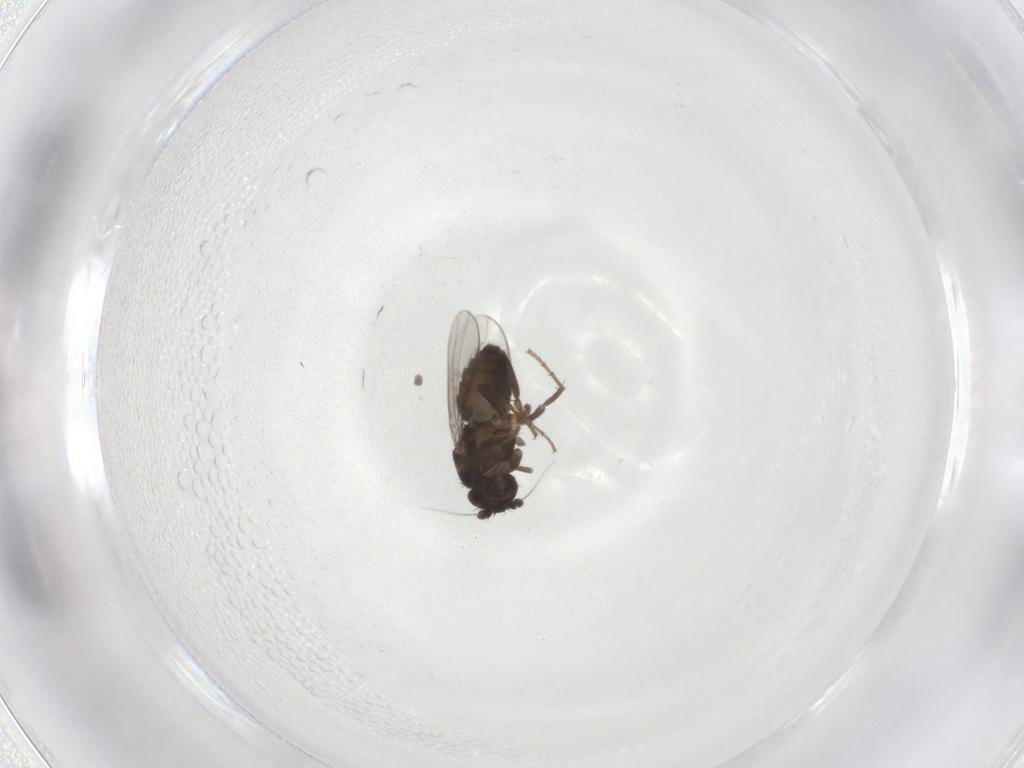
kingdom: Animalia
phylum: Arthropoda
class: Insecta
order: Diptera
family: Sphaeroceridae
